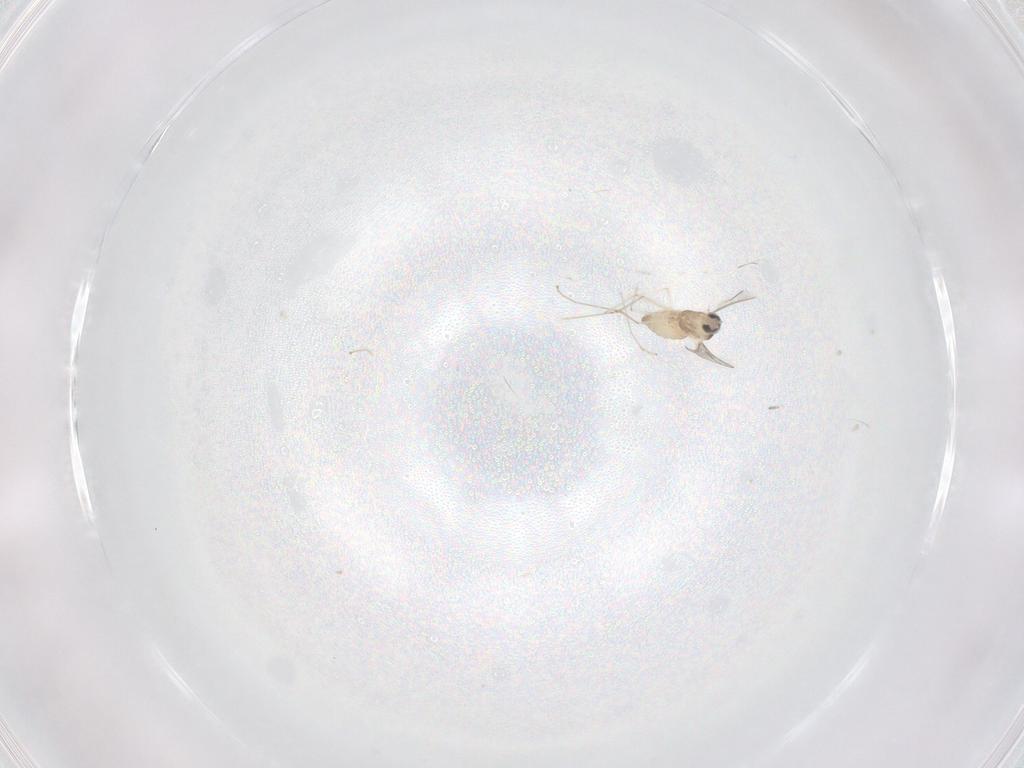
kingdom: Animalia
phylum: Arthropoda
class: Insecta
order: Diptera
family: Cecidomyiidae
